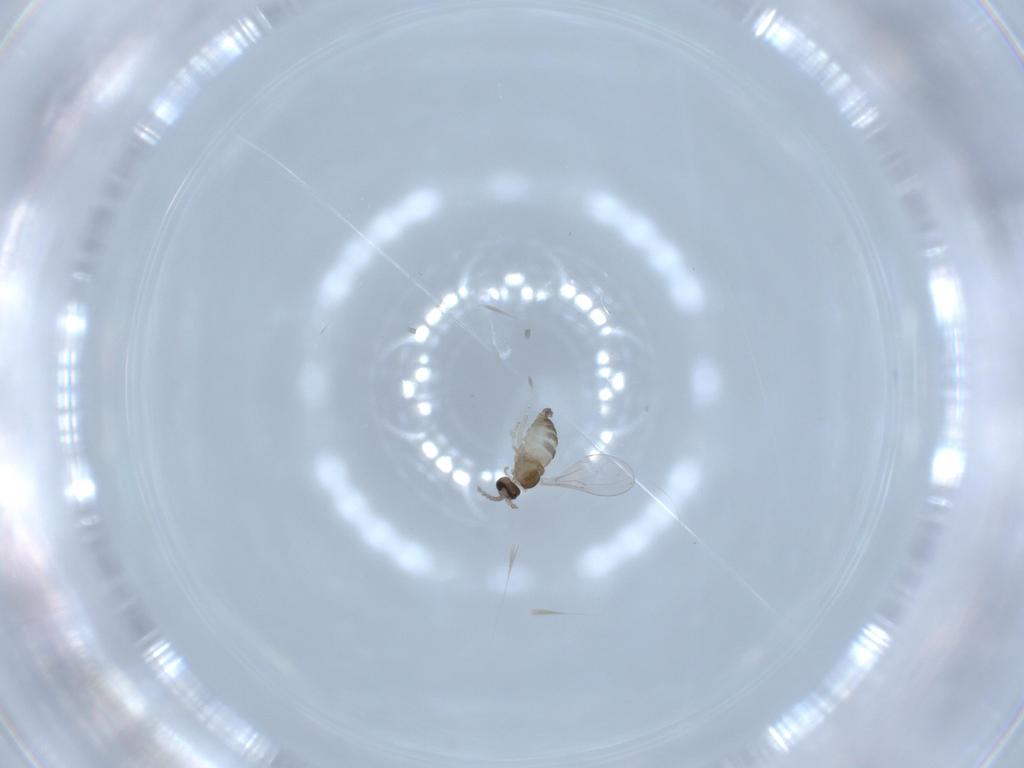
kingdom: Animalia
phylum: Arthropoda
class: Insecta
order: Diptera
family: Cecidomyiidae
